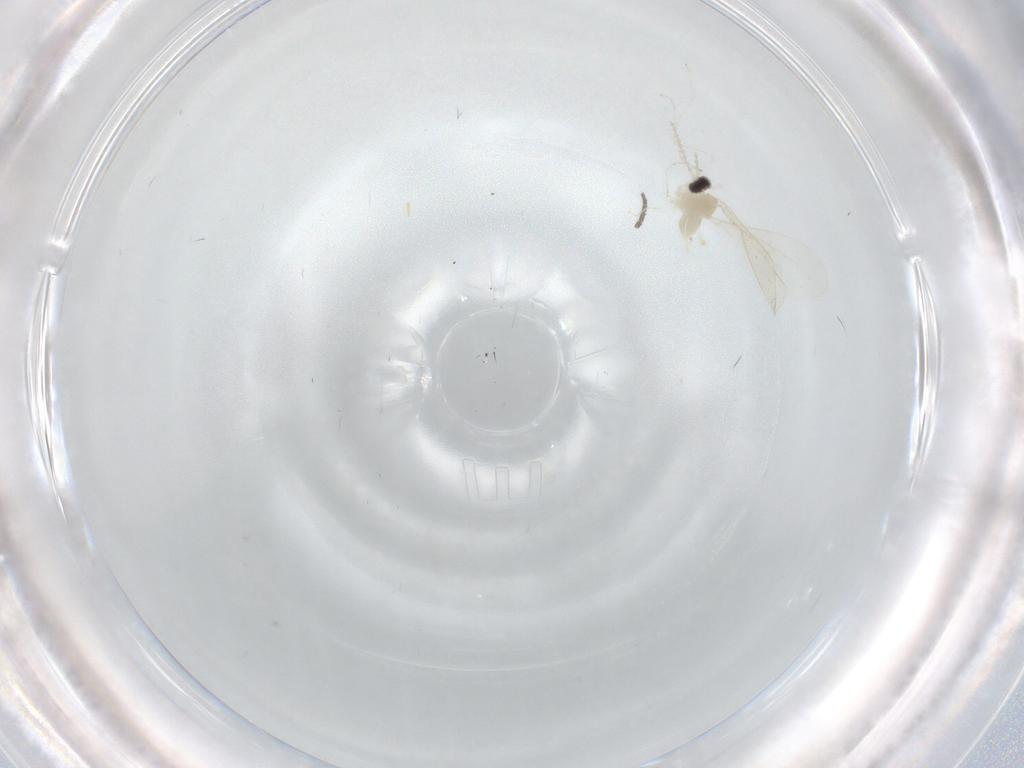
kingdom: Animalia
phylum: Arthropoda
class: Insecta
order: Diptera
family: Phoridae
